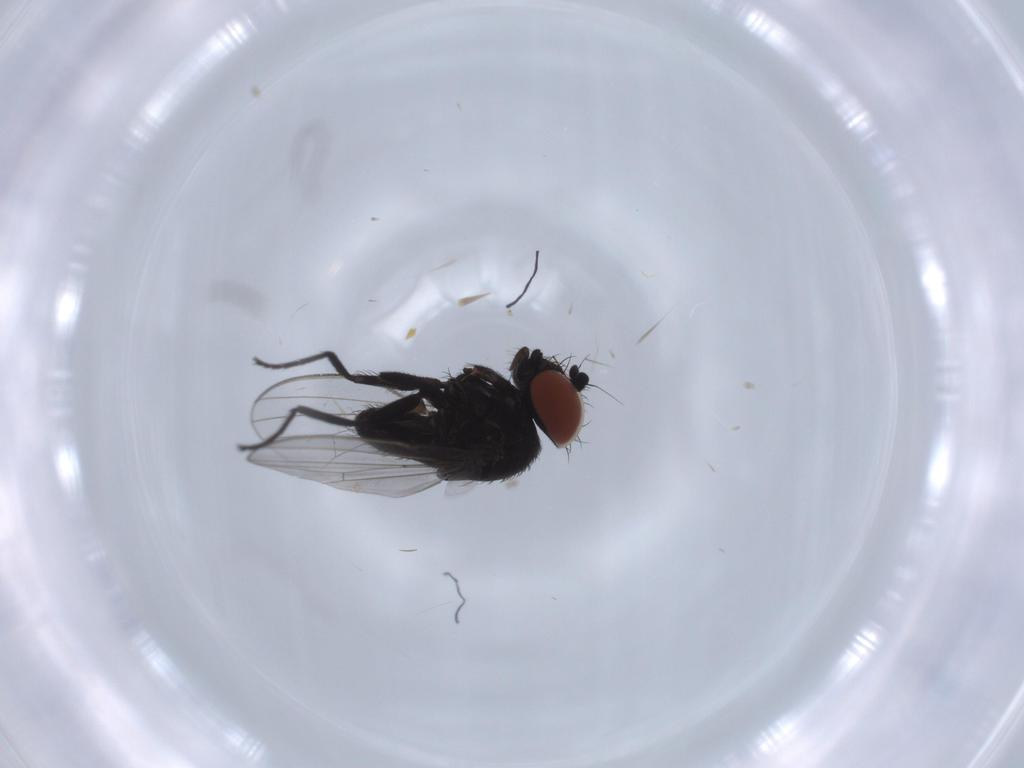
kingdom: Animalia
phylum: Arthropoda
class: Insecta
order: Diptera
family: Milichiidae
